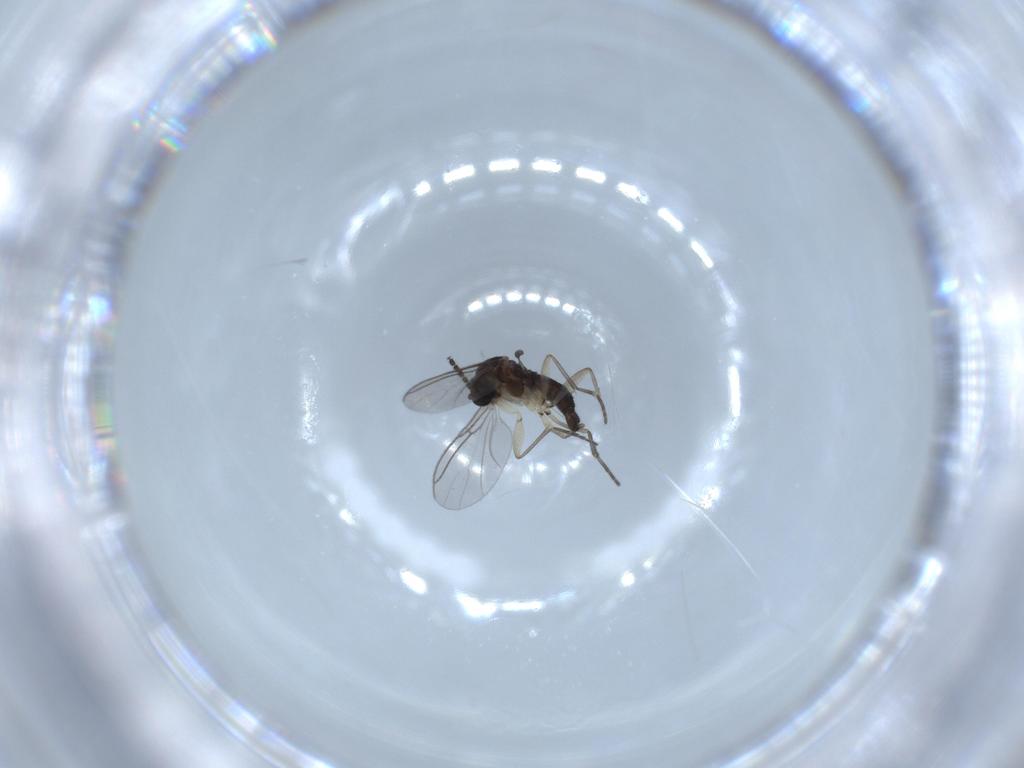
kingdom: Animalia
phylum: Arthropoda
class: Insecta
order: Diptera
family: Sciaridae
